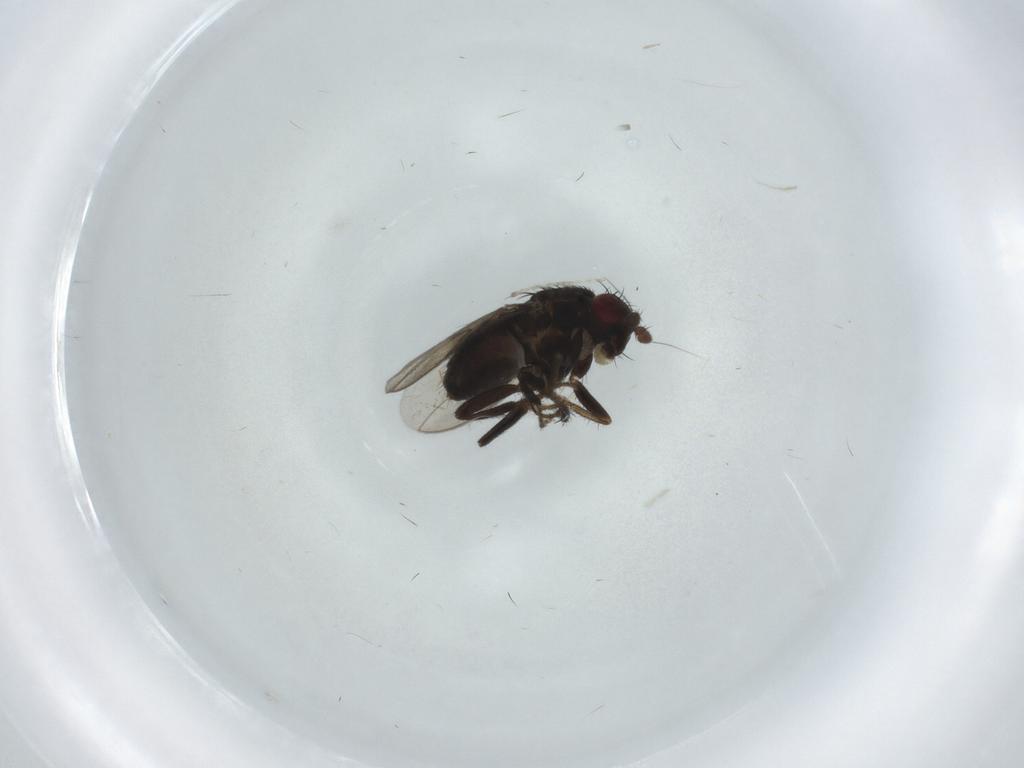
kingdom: Animalia
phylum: Arthropoda
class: Insecta
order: Diptera
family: Sphaeroceridae
